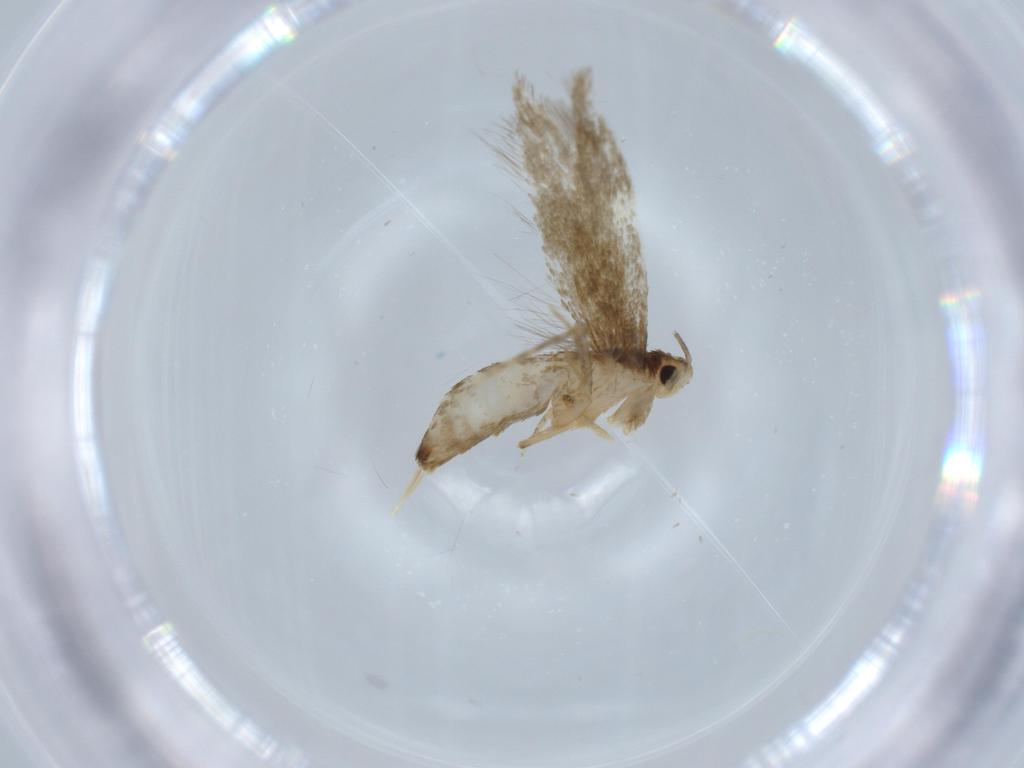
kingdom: Animalia
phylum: Arthropoda
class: Insecta
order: Lepidoptera
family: Tineidae
